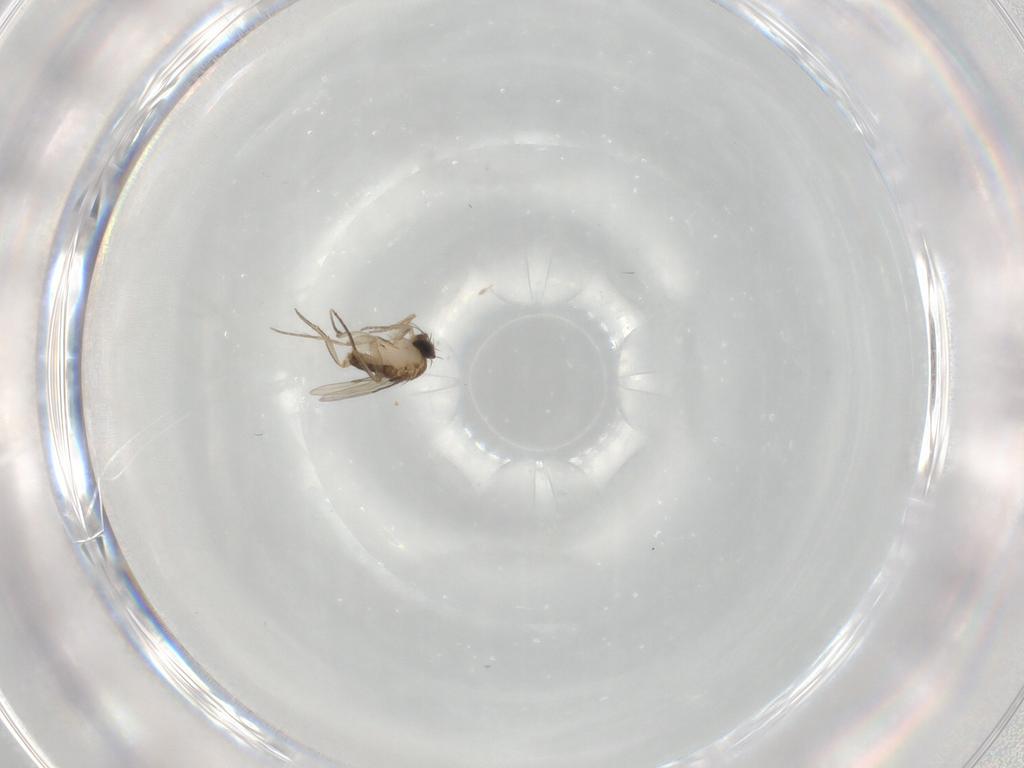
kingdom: Animalia
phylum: Arthropoda
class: Insecta
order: Diptera
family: Phoridae
